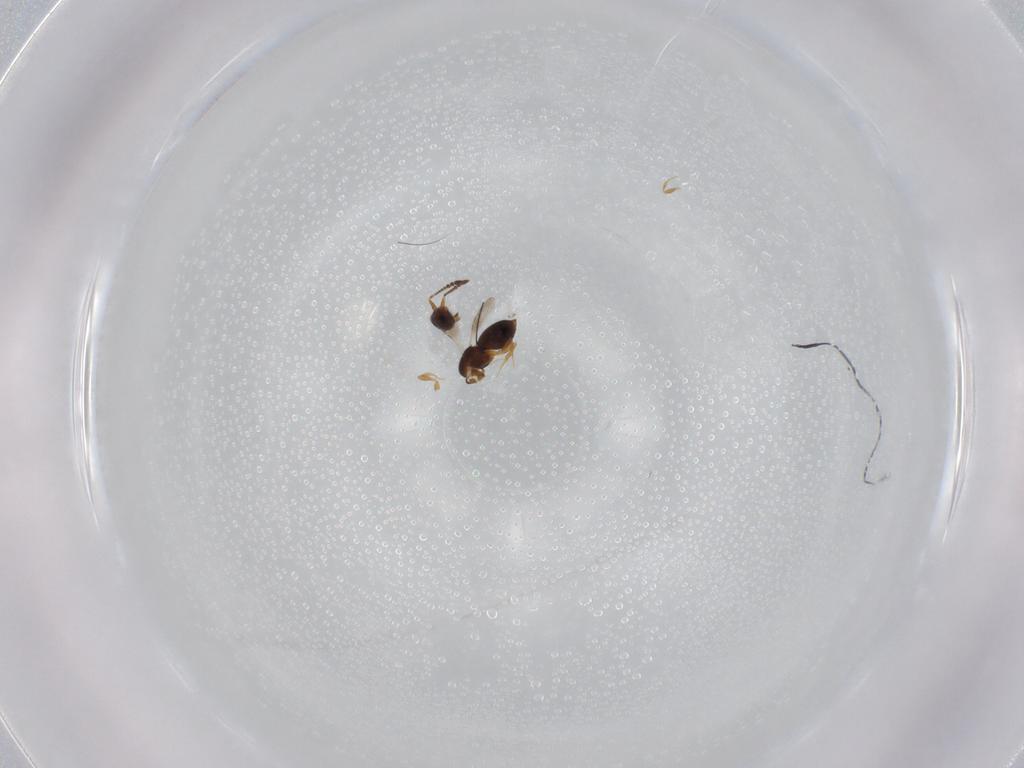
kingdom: Animalia
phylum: Arthropoda
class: Insecta
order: Hymenoptera
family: Ceraphronidae
